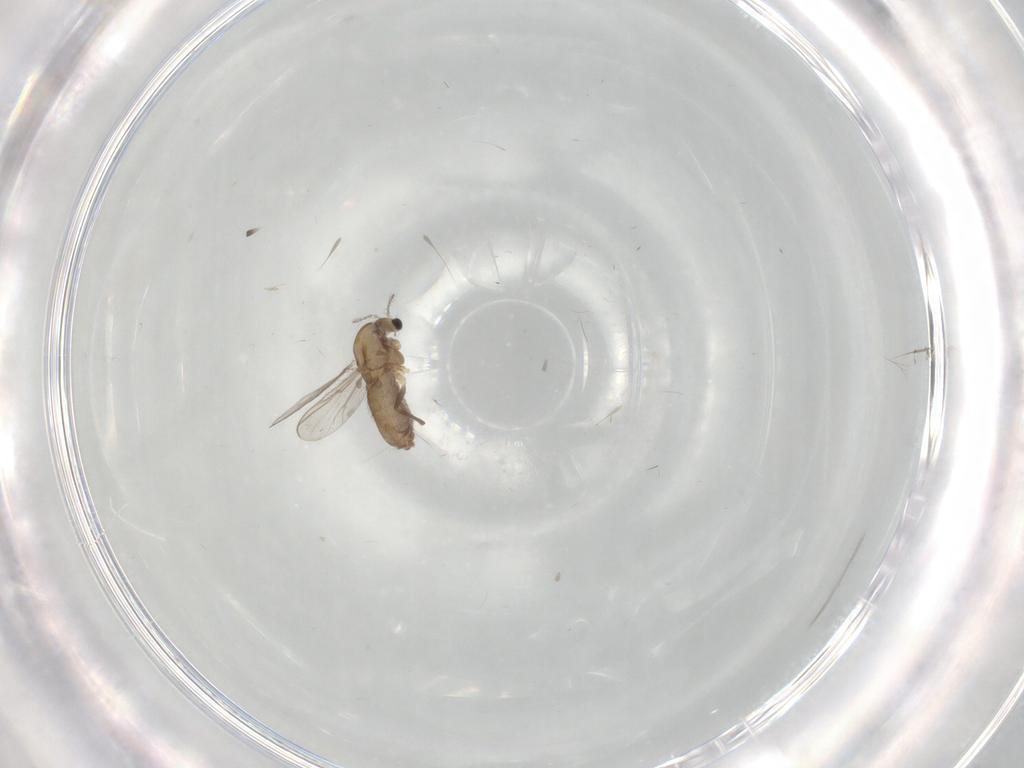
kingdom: Animalia
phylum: Arthropoda
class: Insecta
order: Diptera
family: Chironomidae
